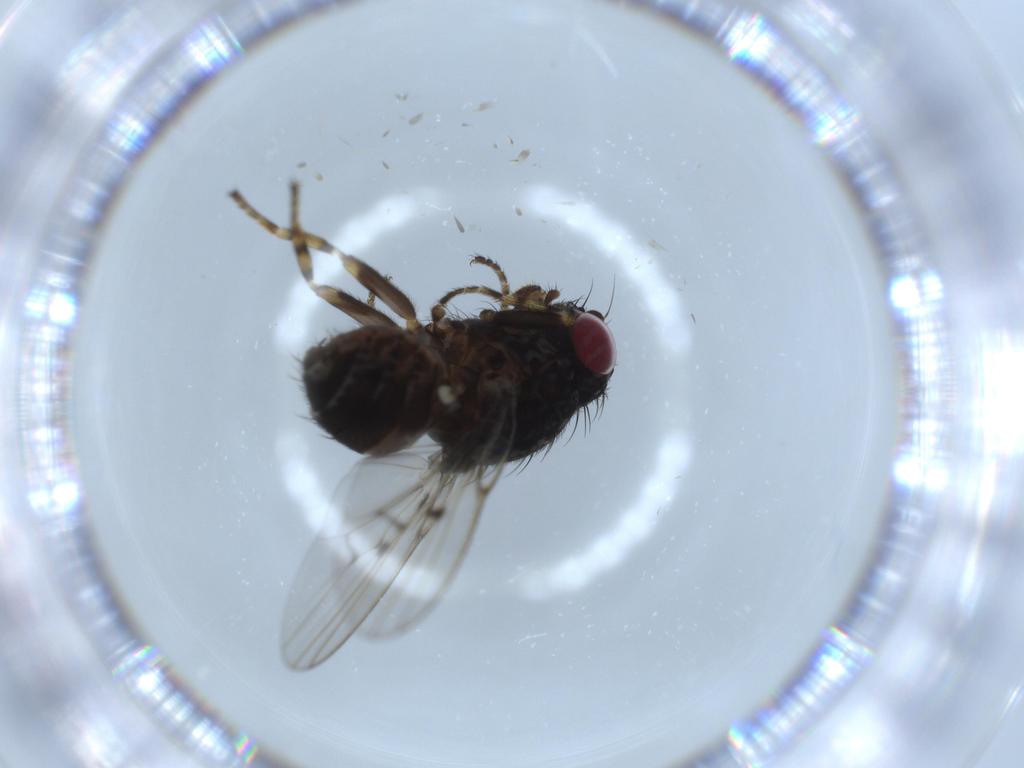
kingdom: Animalia
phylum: Arthropoda
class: Insecta
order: Diptera
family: Odiniidae
